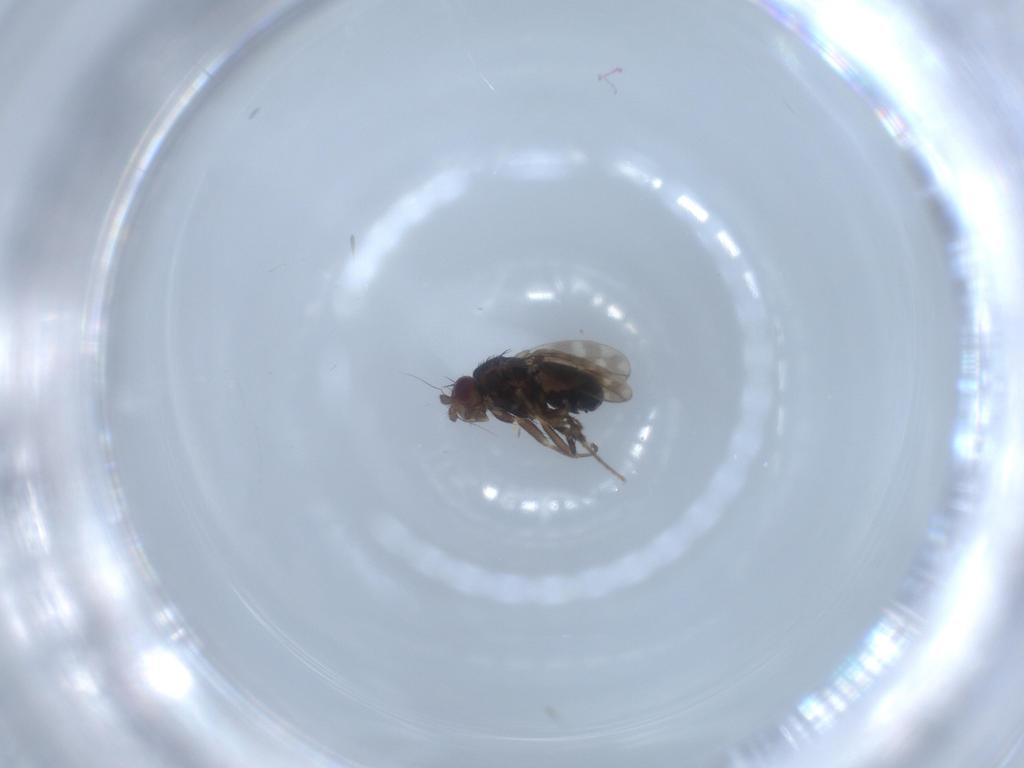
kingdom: Animalia
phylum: Arthropoda
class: Insecta
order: Diptera
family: Sphaeroceridae
